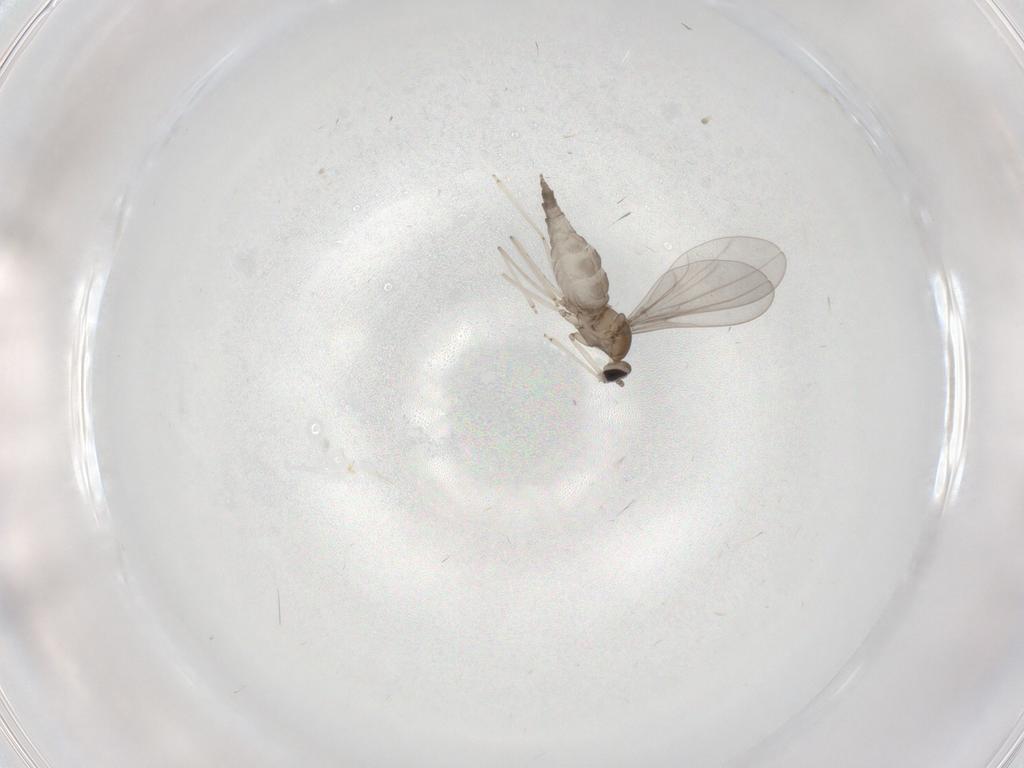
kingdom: Animalia
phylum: Arthropoda
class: Insecta
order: Diptera
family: Cecidomyiidae
